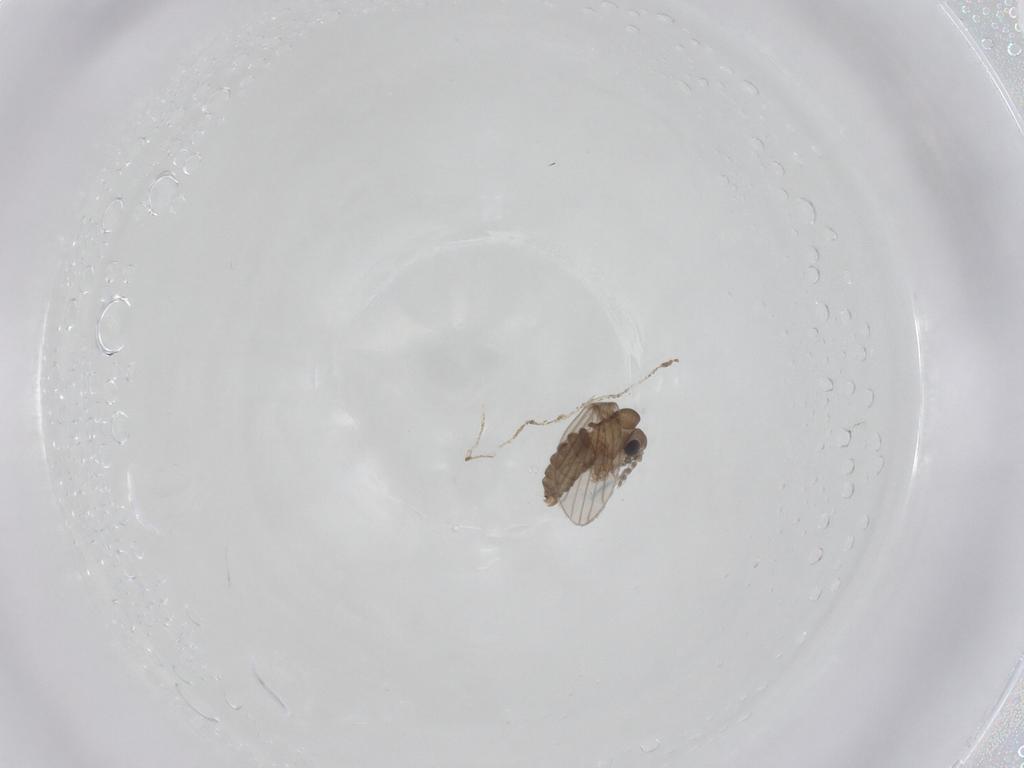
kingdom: Animalia
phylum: Arthropoda
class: Insecta
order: Diptera
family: Psychodidae
